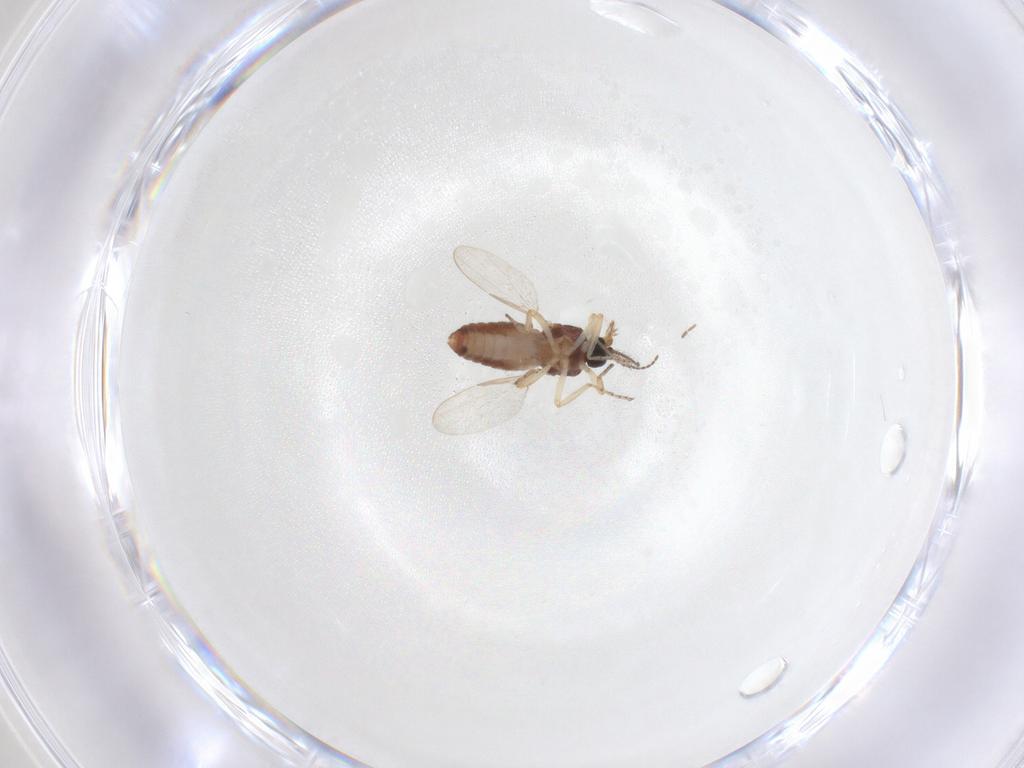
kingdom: Animalia
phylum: Arthropoda
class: Insecta
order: Diptera
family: Ceratopogonidae
